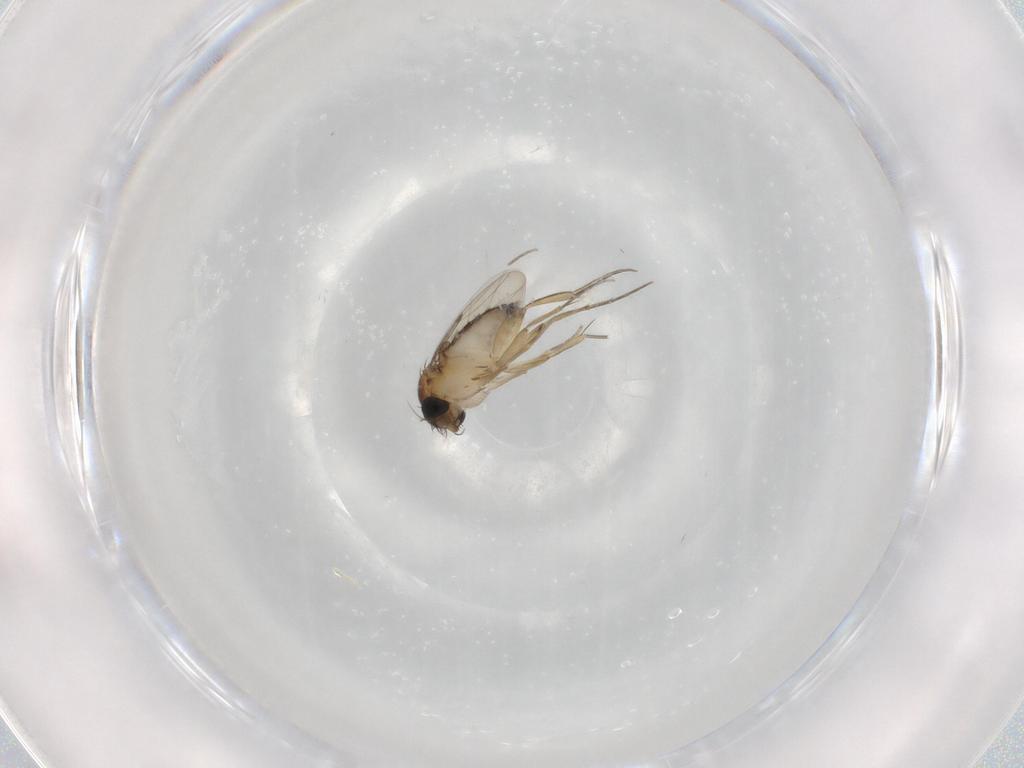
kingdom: Animalia
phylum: Arthropoda
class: Insecta
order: Diptera
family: Phoridae
